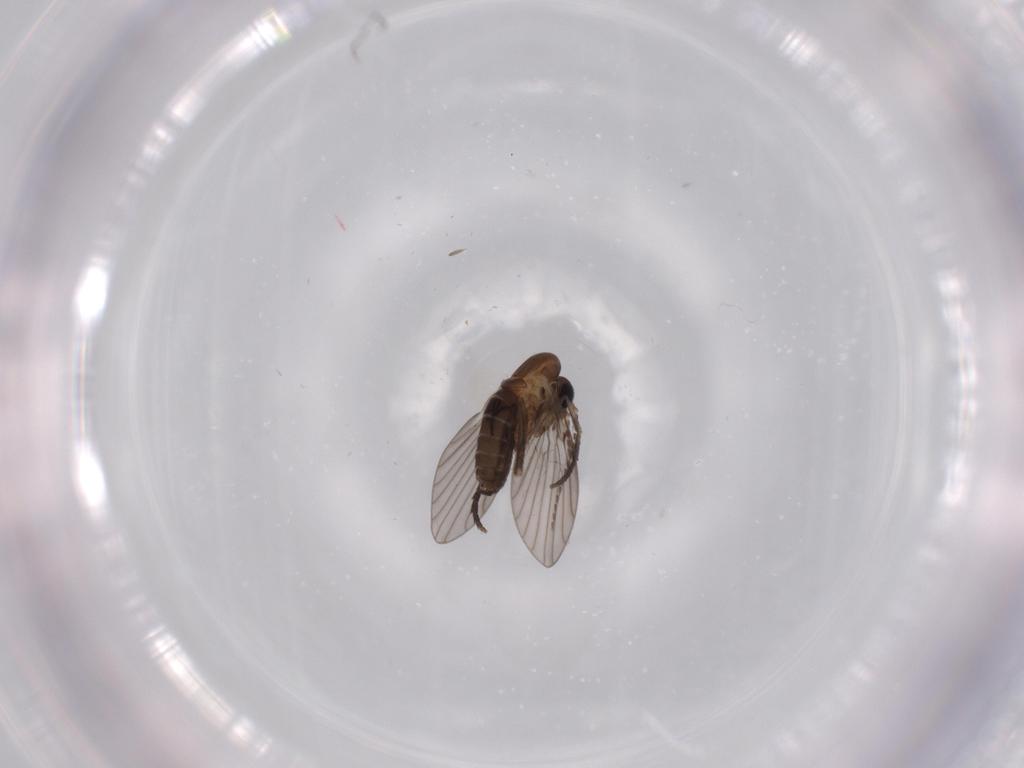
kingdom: Animalia
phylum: Arthropoda
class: Insecta
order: Diptera
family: Psychodidae
